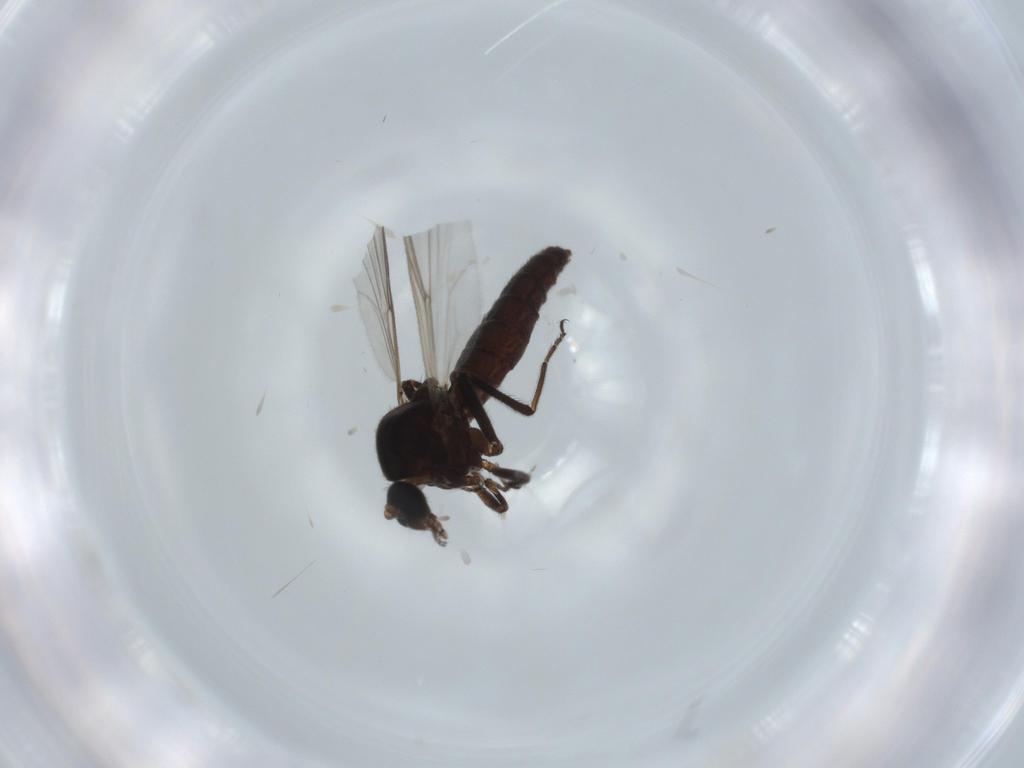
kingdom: Animalia
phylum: Arthropoda
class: Insecta
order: Diptera
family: Ceratopogonidae
